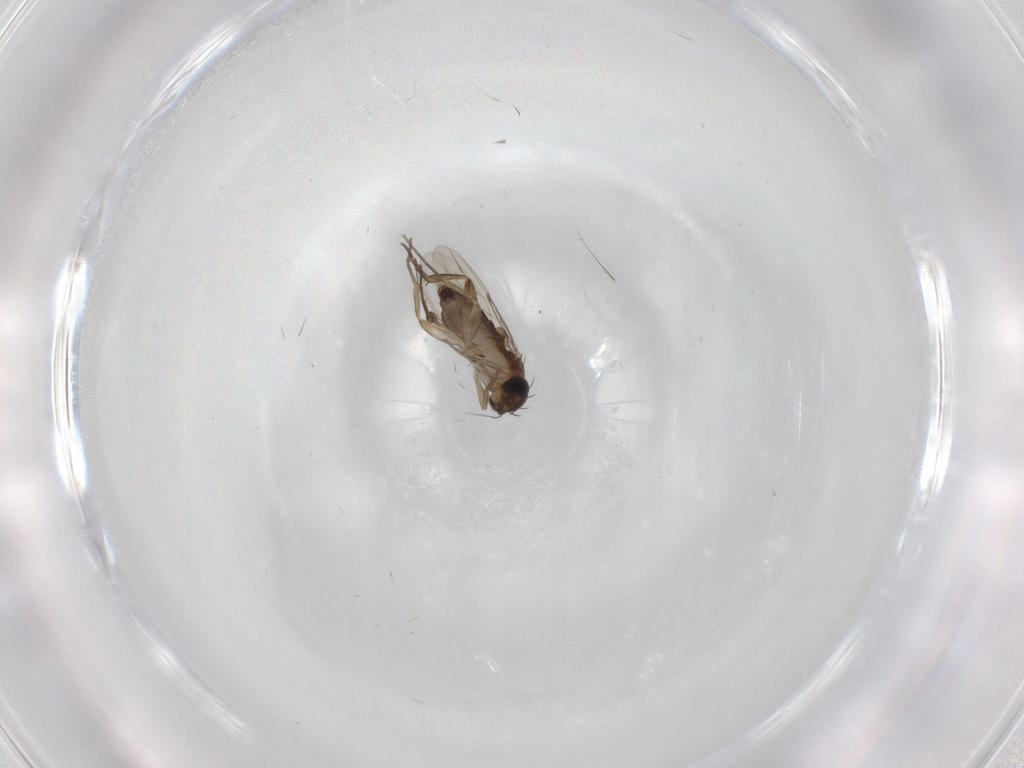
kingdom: Animalia
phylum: Arthropoda
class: Insecta
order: Diptera
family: Phoridae
